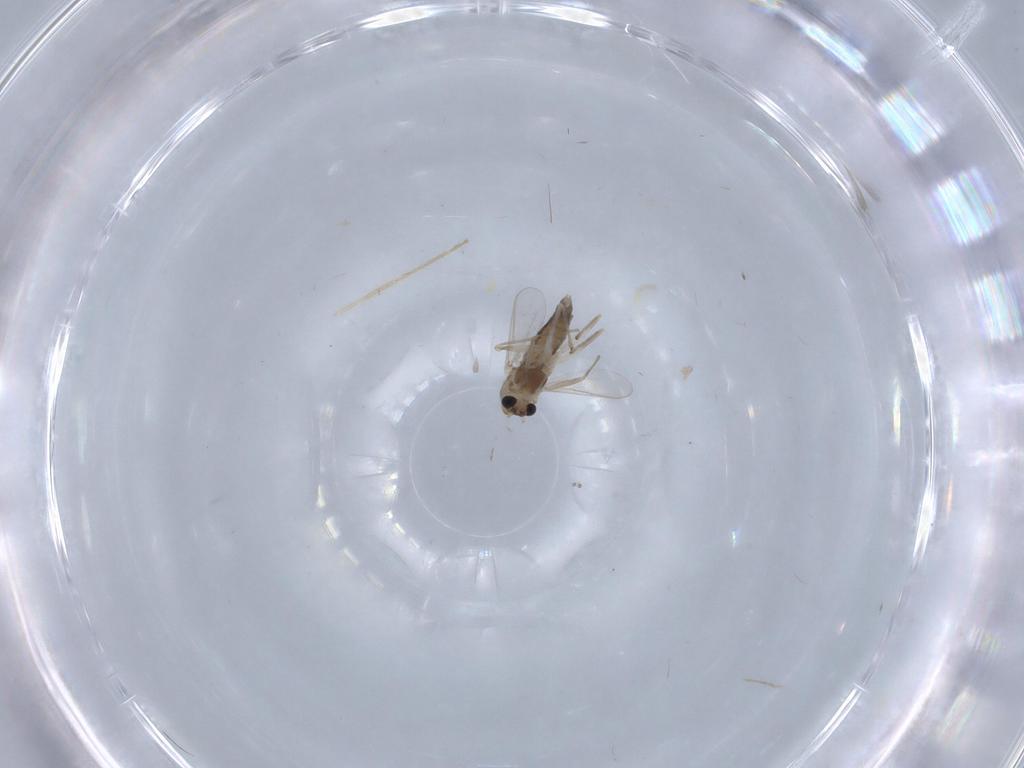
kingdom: Animalia
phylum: Arthropoda
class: Insecta
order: Diptera
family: Chironomidae
